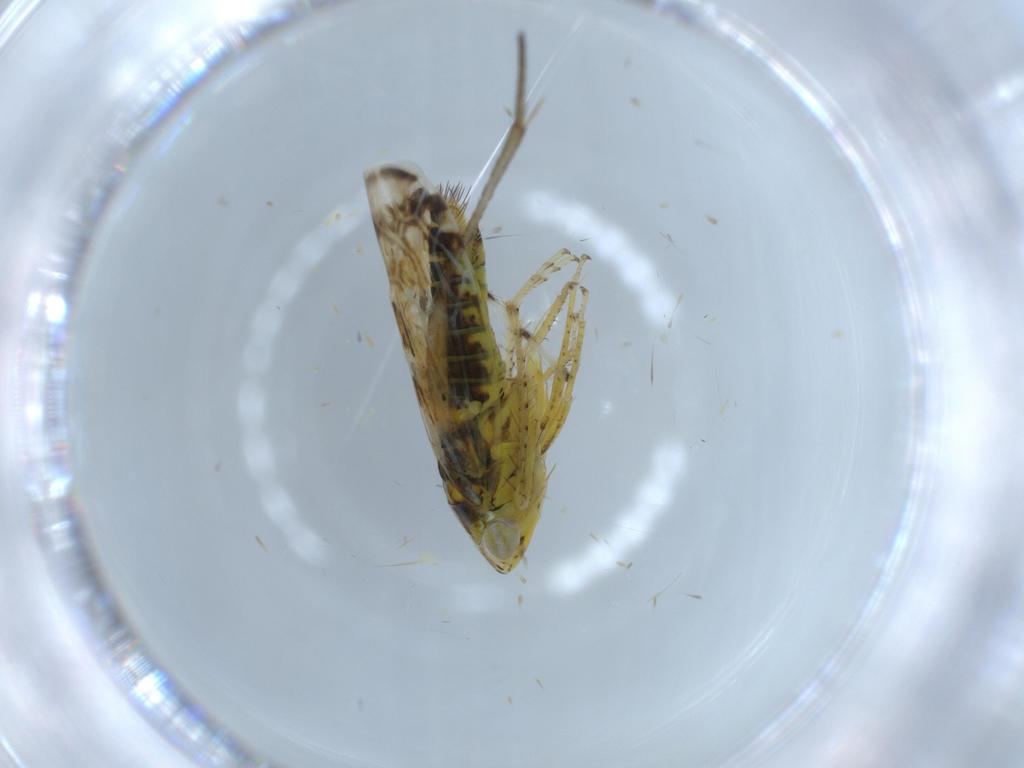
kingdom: Animalia
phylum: Arthropoda
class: Insecta
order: Hemiptera
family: Cicadellidae
